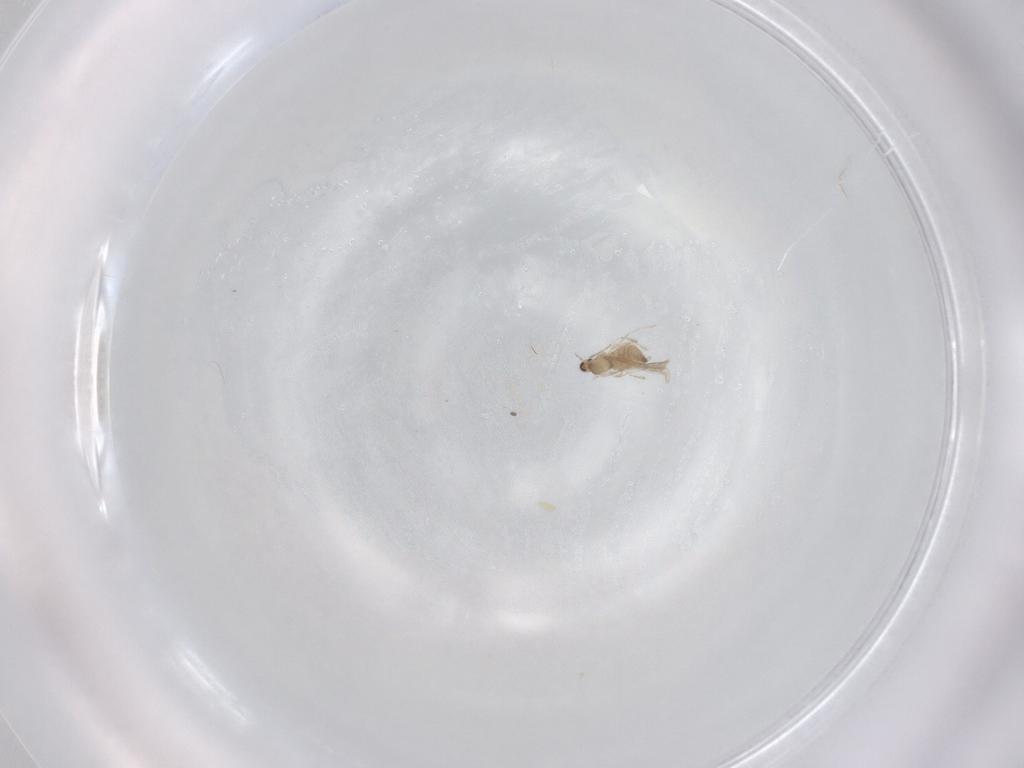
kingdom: Animalia
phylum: Arthropoda
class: Insecta
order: Diptera
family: Cecidomyiidae
